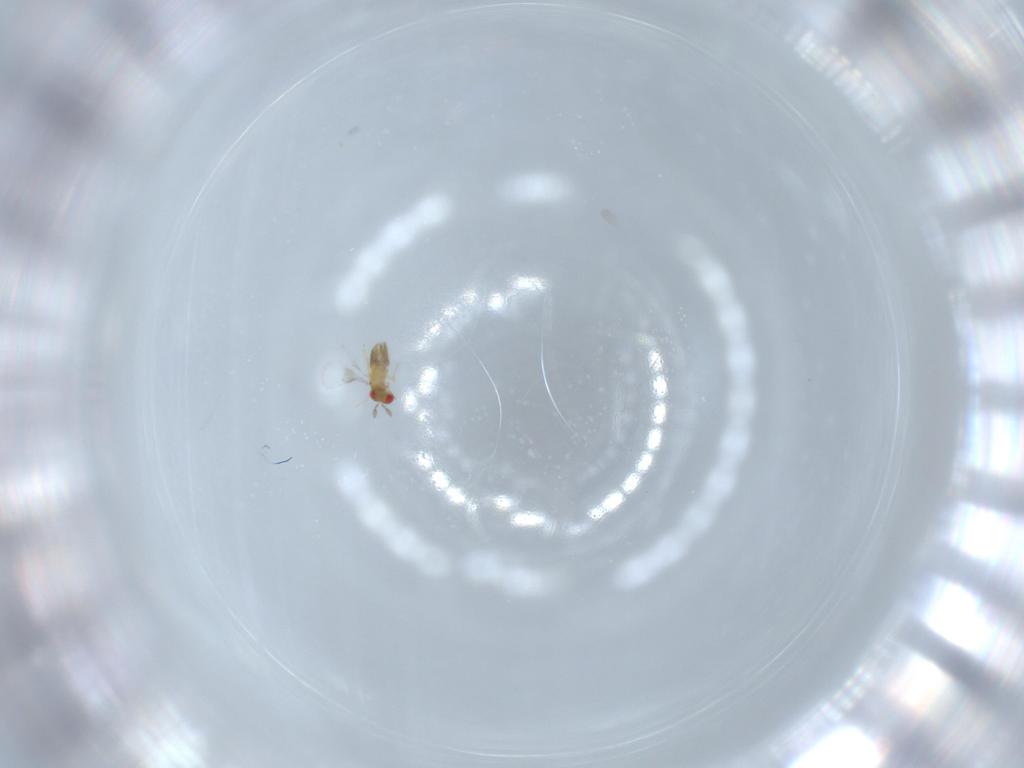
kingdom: Animalia
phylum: Arthropoda
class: Insecta
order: Hymenoptera
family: Trichogrammatidae
